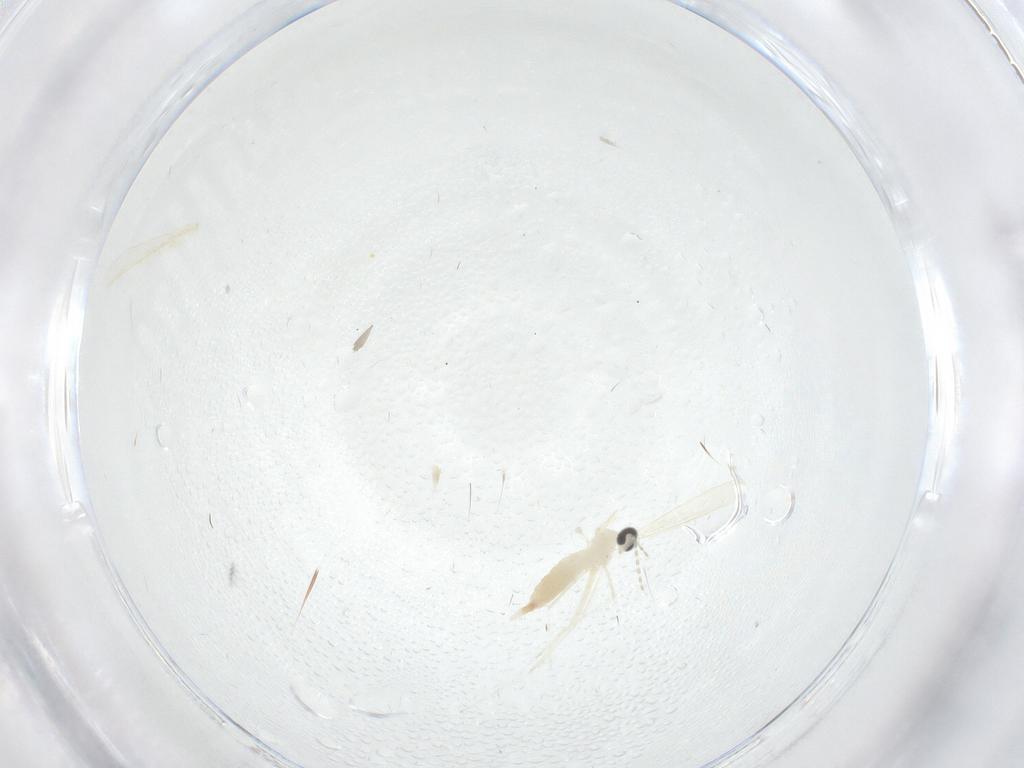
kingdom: Animalia
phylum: Arthropoda
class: Insecta
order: Diptera
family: Cecidomyiidae
